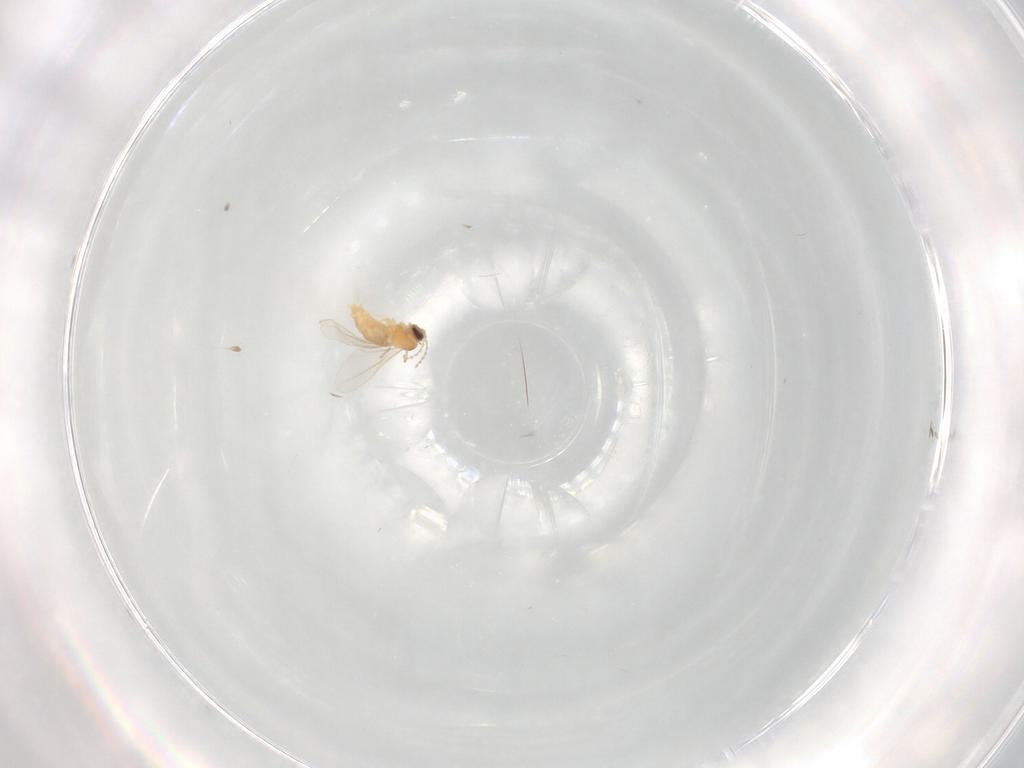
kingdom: Animalia
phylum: Arthropoda
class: Insecta
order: Diptera
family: Cecidomyiidae
